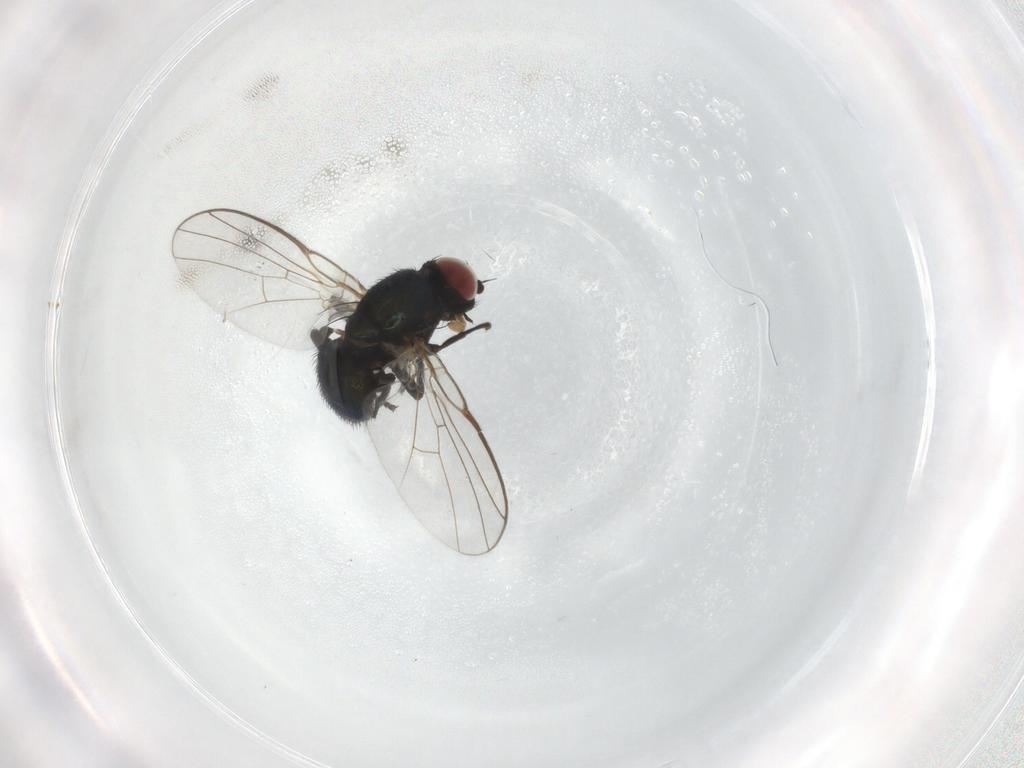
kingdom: Animalia
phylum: Arthropoda
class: Insecta
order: Diptera
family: Agromyzidae
